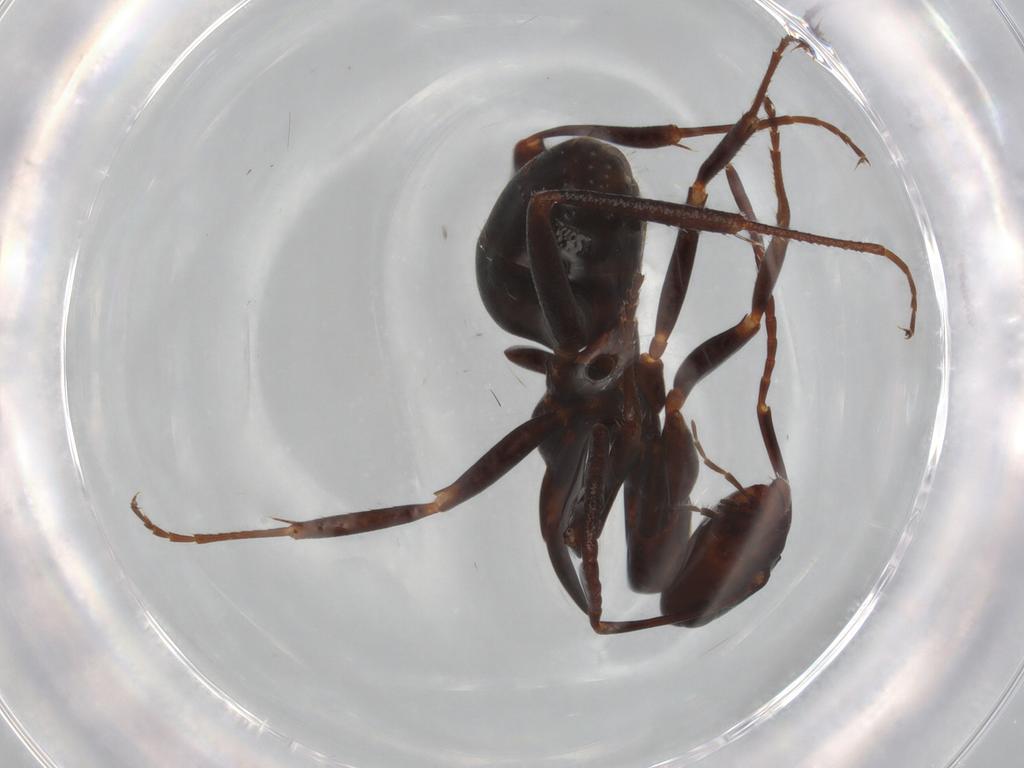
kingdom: Animalia
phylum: Arthropoda
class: Insecta
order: Hymenoptera
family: Formicidae
